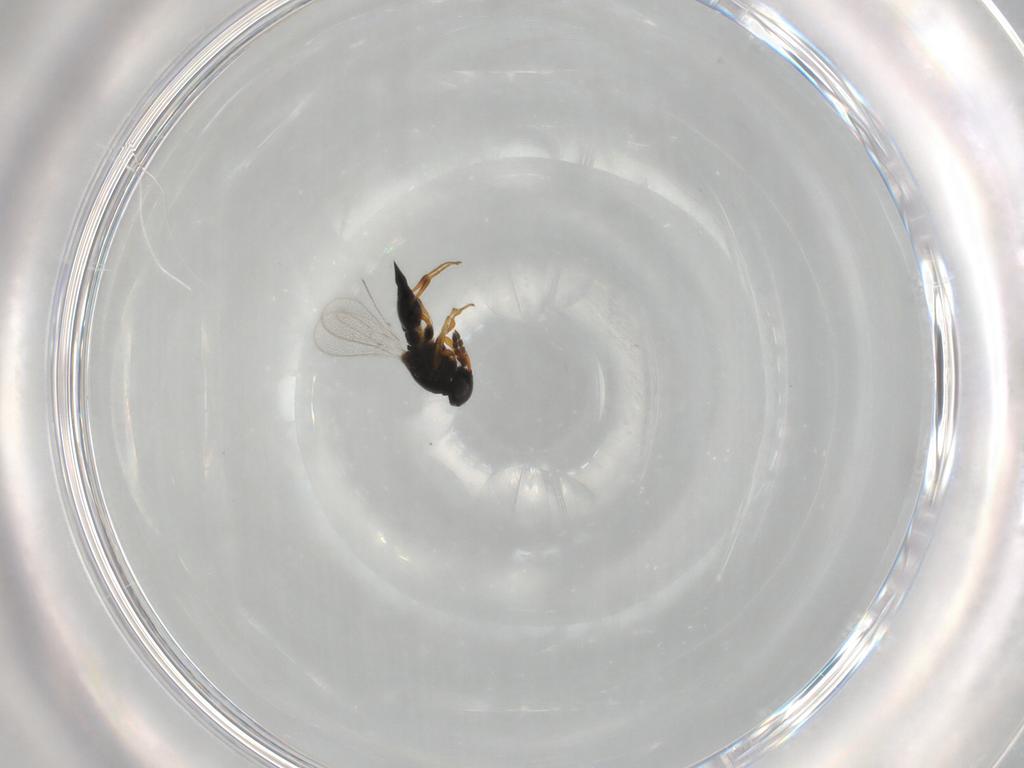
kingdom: Animalia
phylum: Arthropoda
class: Insecta
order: Hymenoptera
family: Platygastridae
